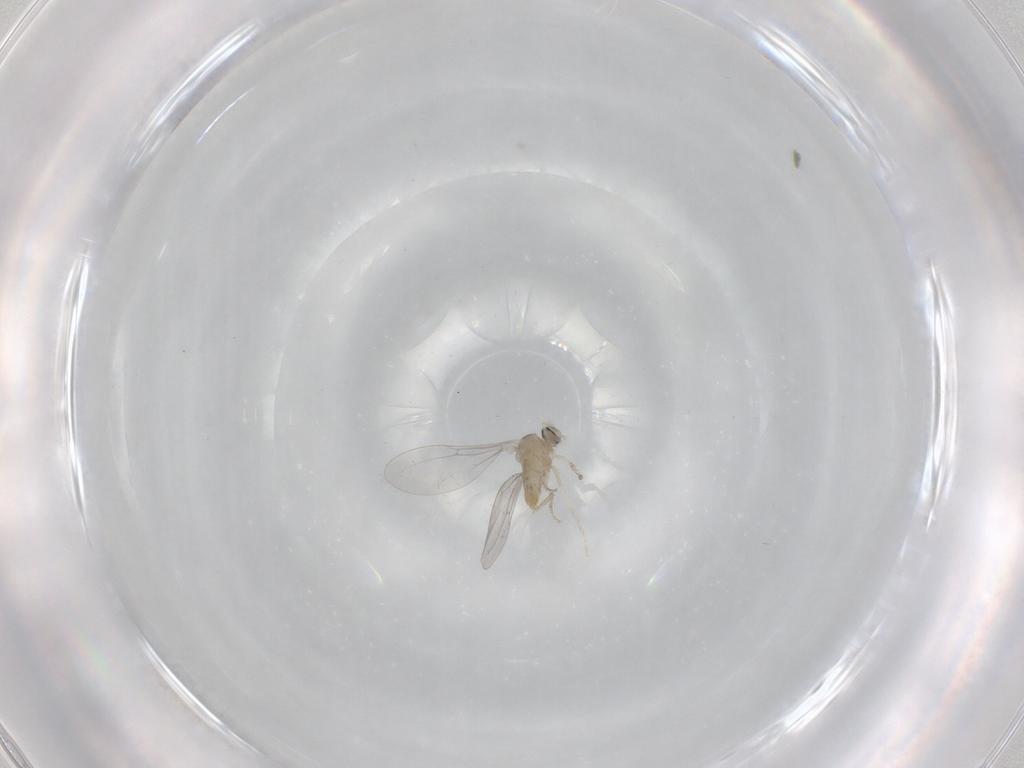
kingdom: Animalia
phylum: Arthropoda
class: Insecta
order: Diptera
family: Cecidomyiidae
